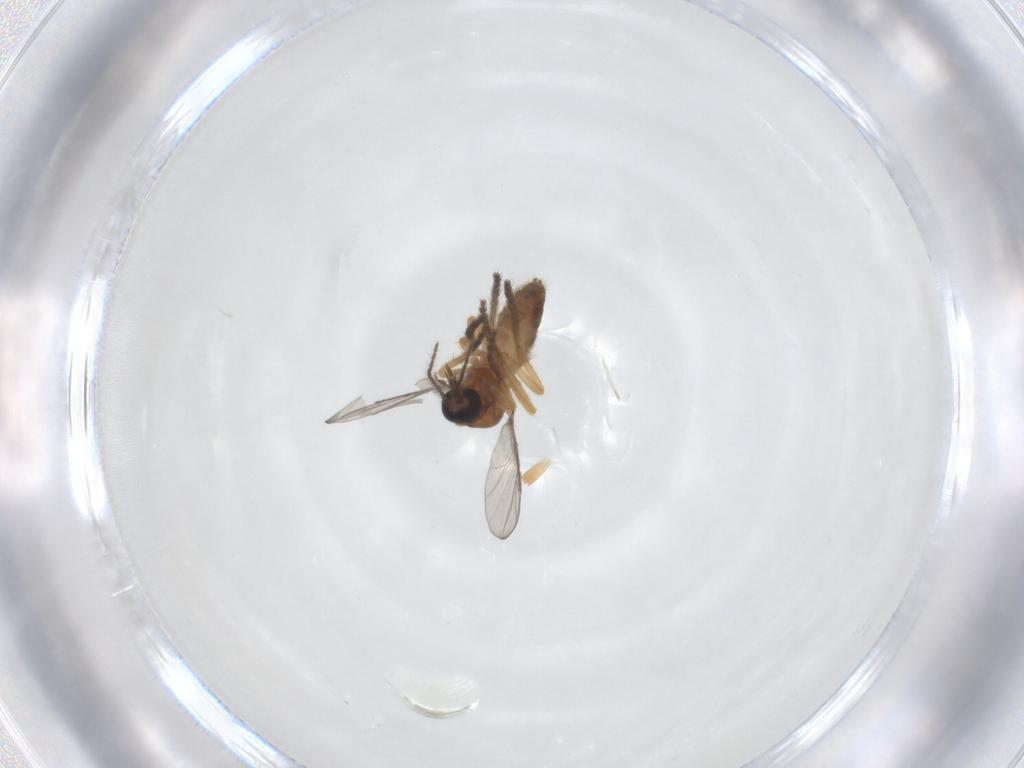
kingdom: Animalia
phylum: Arthropoda
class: Insecta
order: Diptera
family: Ceratopogonidae
